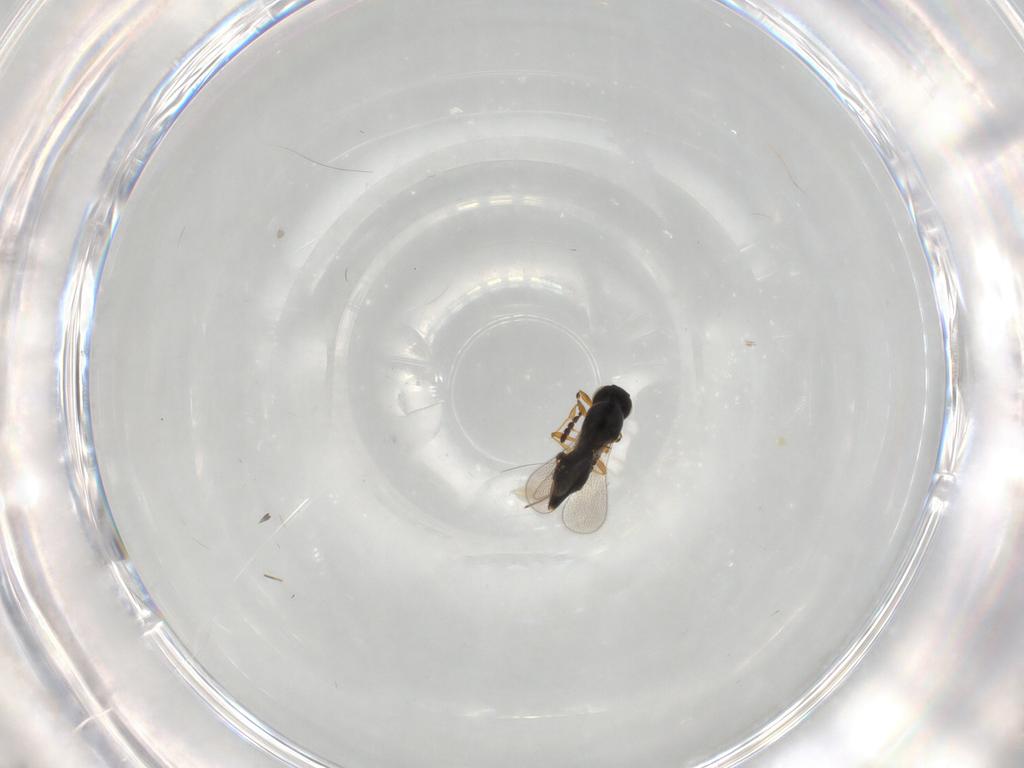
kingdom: Animalia
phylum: Arthropoda
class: Insecta
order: Hymenoptera
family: Platygastridae
